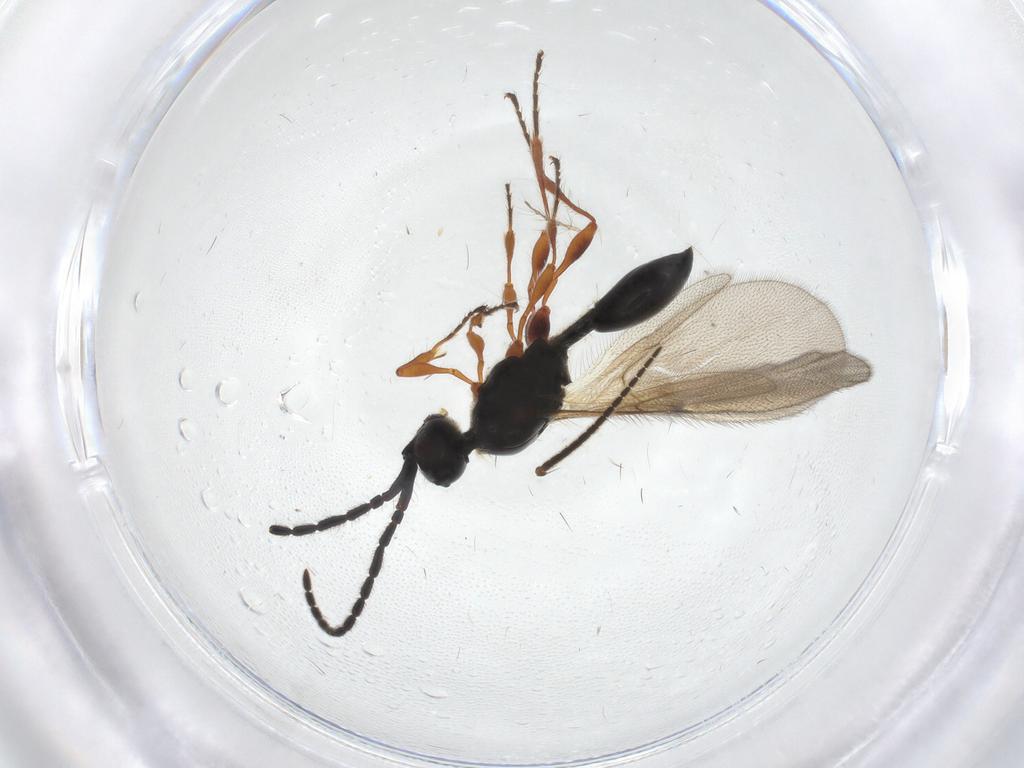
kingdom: Animalia
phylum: Arthropoda
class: Insecta
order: Hymenoptera
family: Diapriidae
